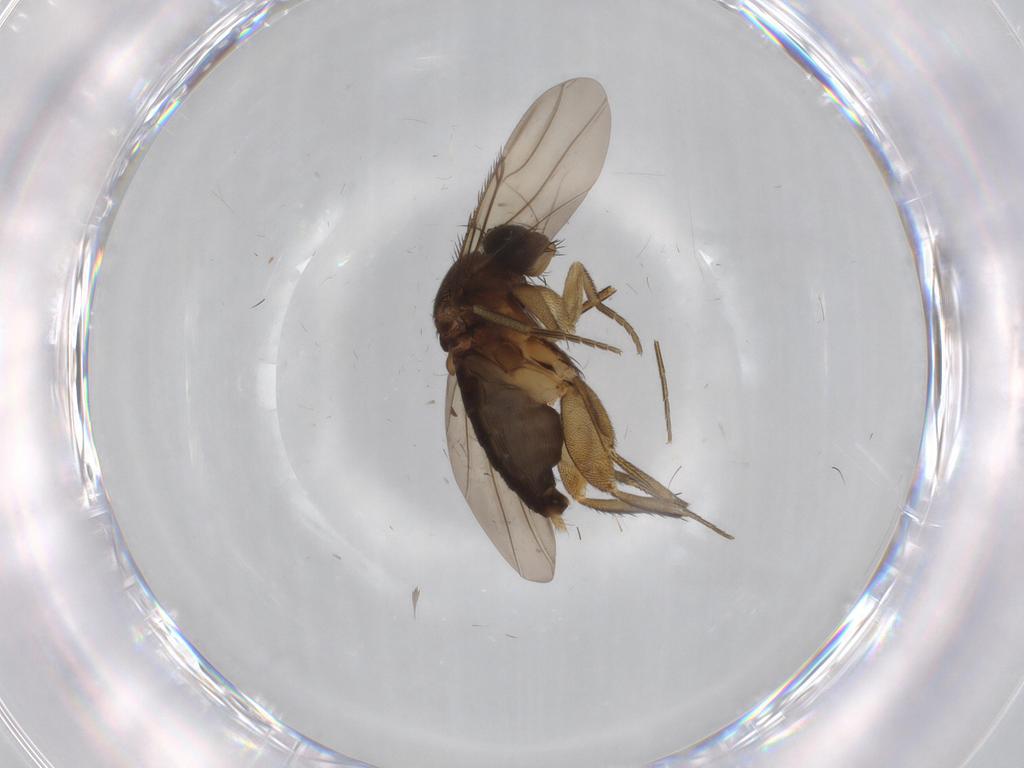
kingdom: Animalia
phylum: Arthropoda
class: Insecta
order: Diptera
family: Phoridae
